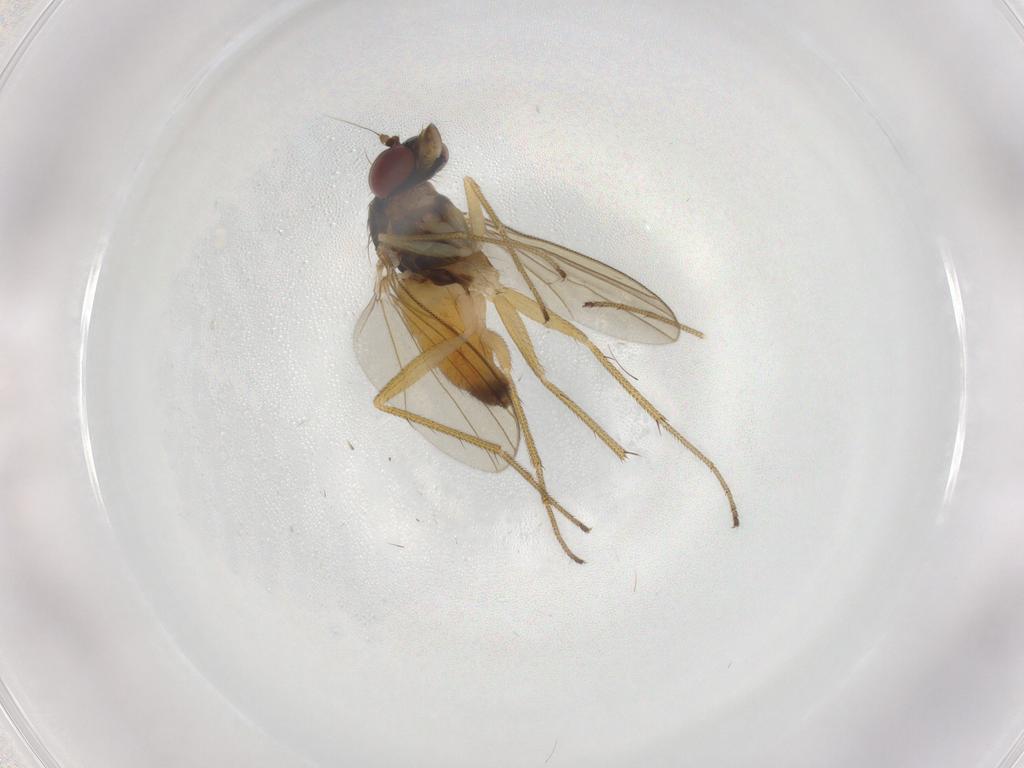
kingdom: Animalia
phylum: Arthropoda
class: Insecta
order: Diptera
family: Dolichopodidae
